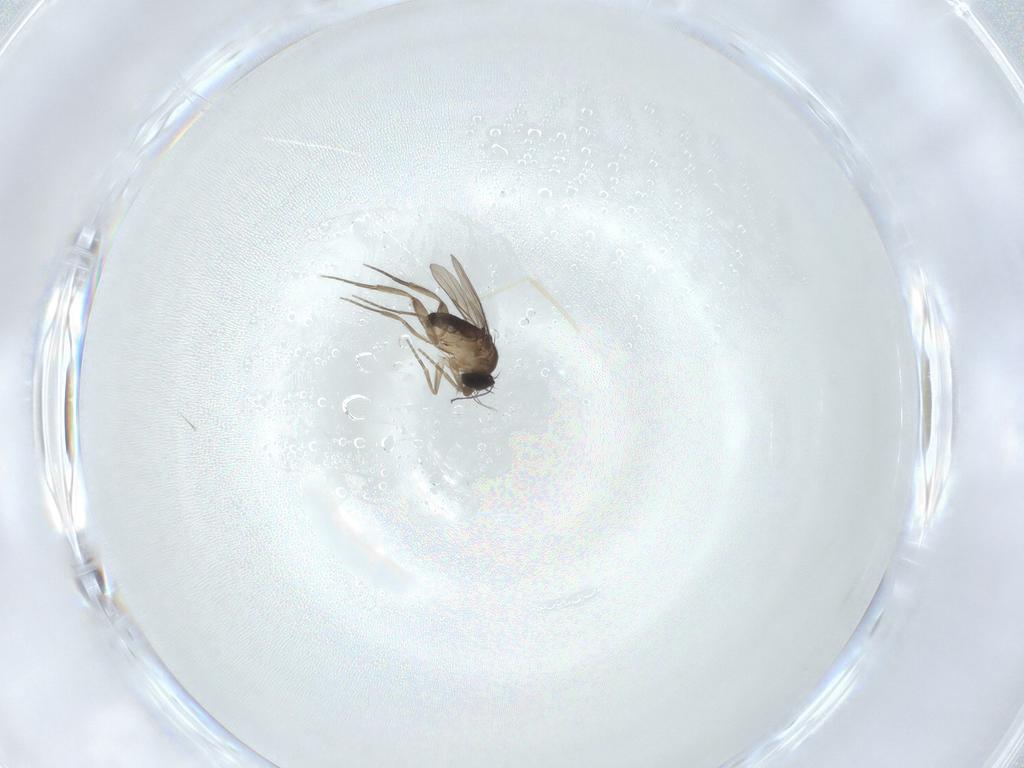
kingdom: Animalia
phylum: Arthropoda
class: Insecta
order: Diptera
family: Phoridae
